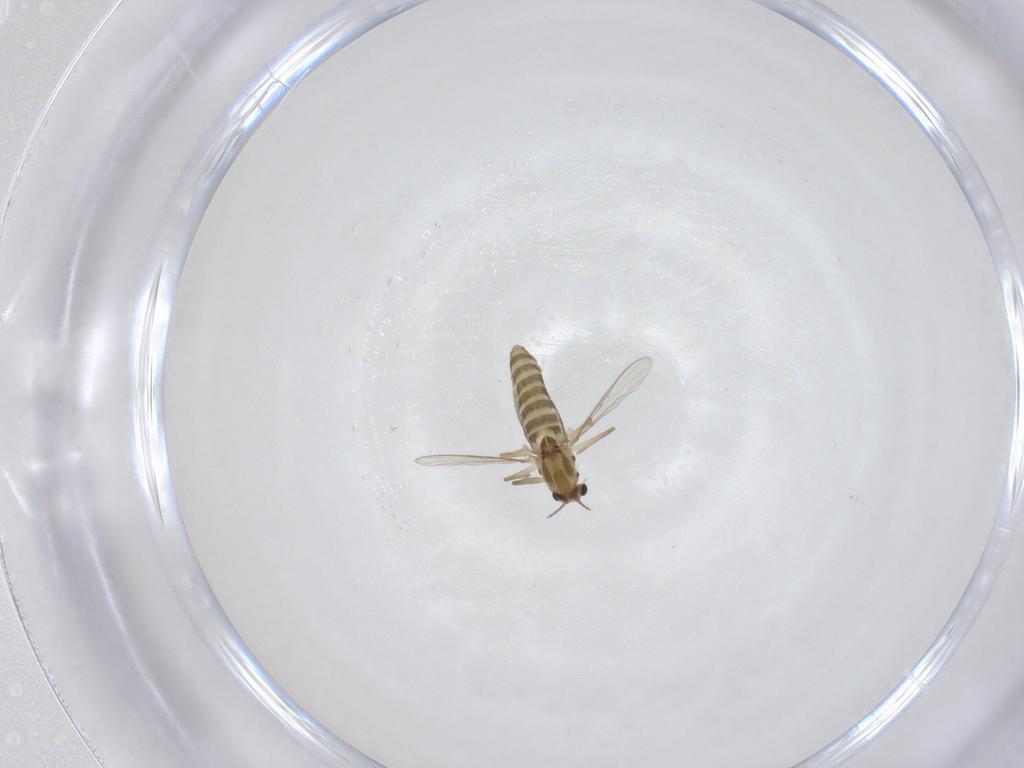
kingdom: Animalia
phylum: Arthropoda
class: Insecta
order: Diptera
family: Chironomidae
